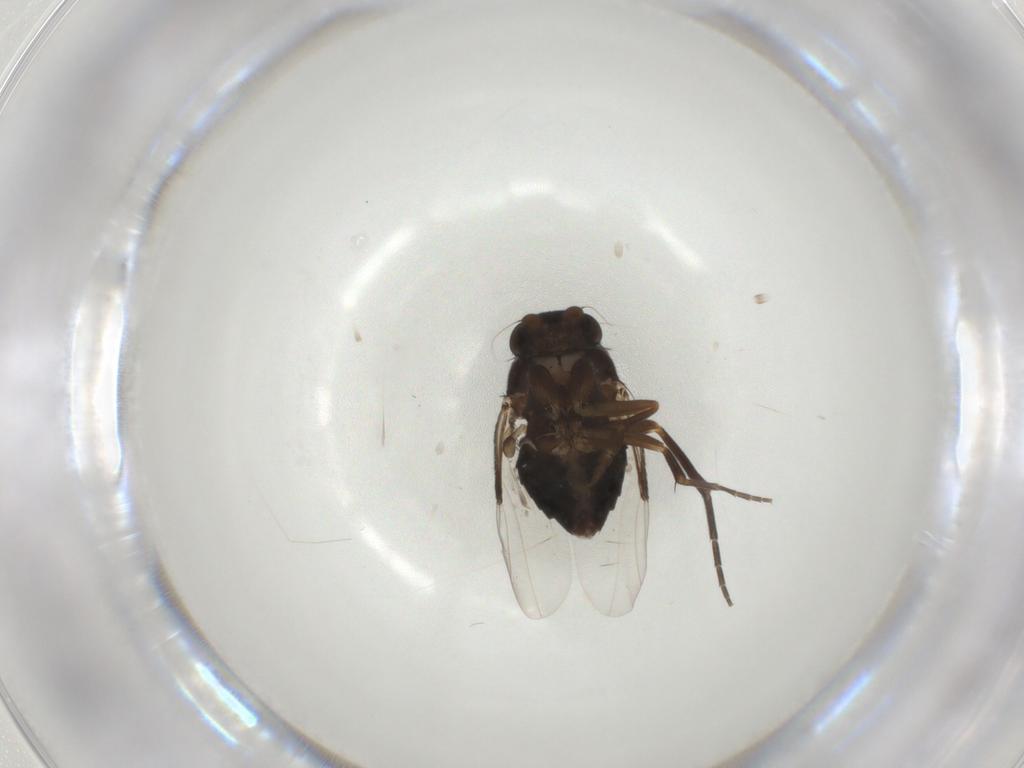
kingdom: Animalia
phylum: Arthropoda
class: Insecta
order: Diptera
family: Phoridae
